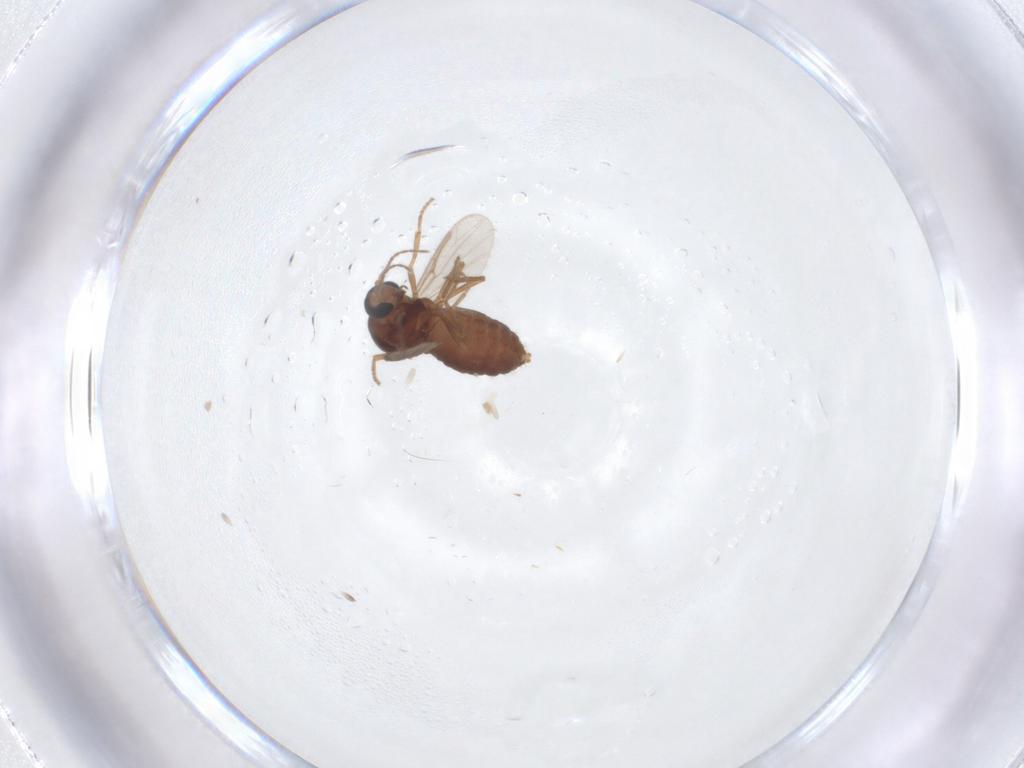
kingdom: Animalia
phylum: Arthropoda
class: Insecta
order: Diptera
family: Ceratopogonidae
